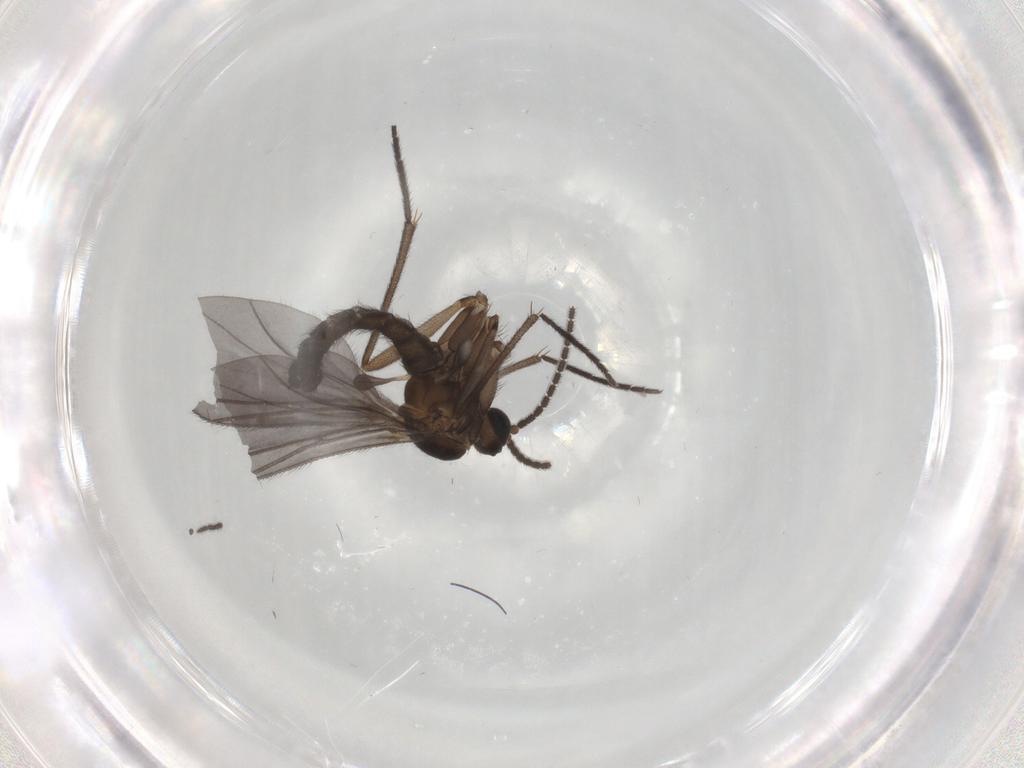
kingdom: Animalia
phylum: Arthropoda
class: Insecta
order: Diptera
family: Sciaridae
